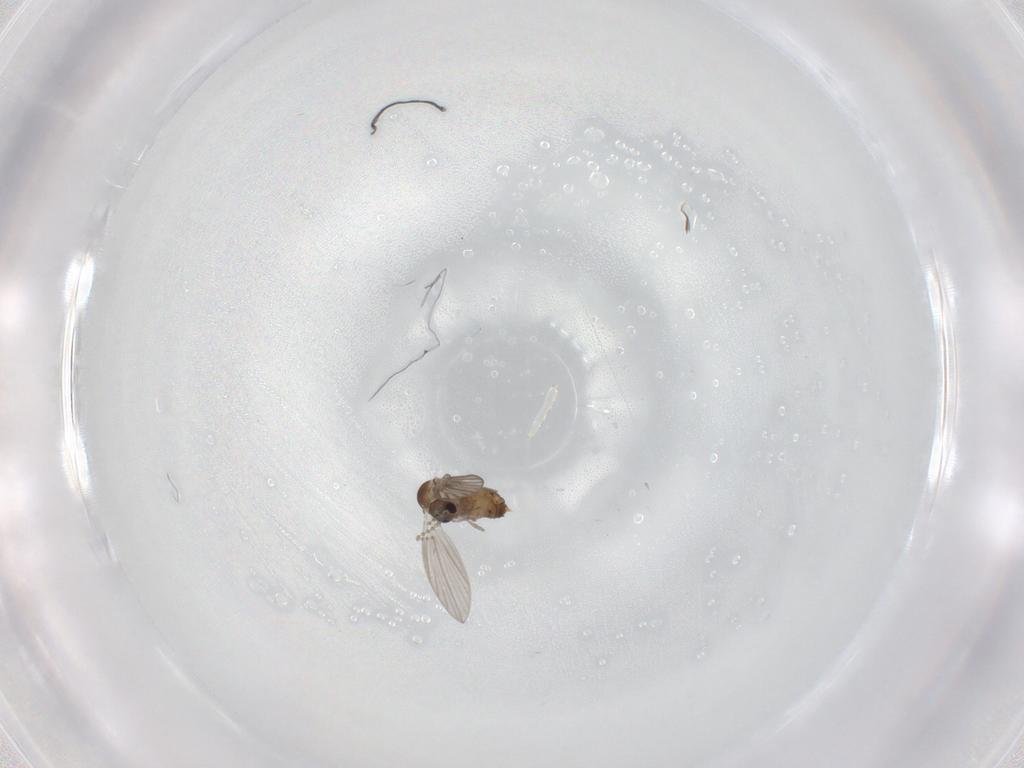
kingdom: Animalia
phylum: Arthropoda
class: Insecta
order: Diptera
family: Psychodidae
